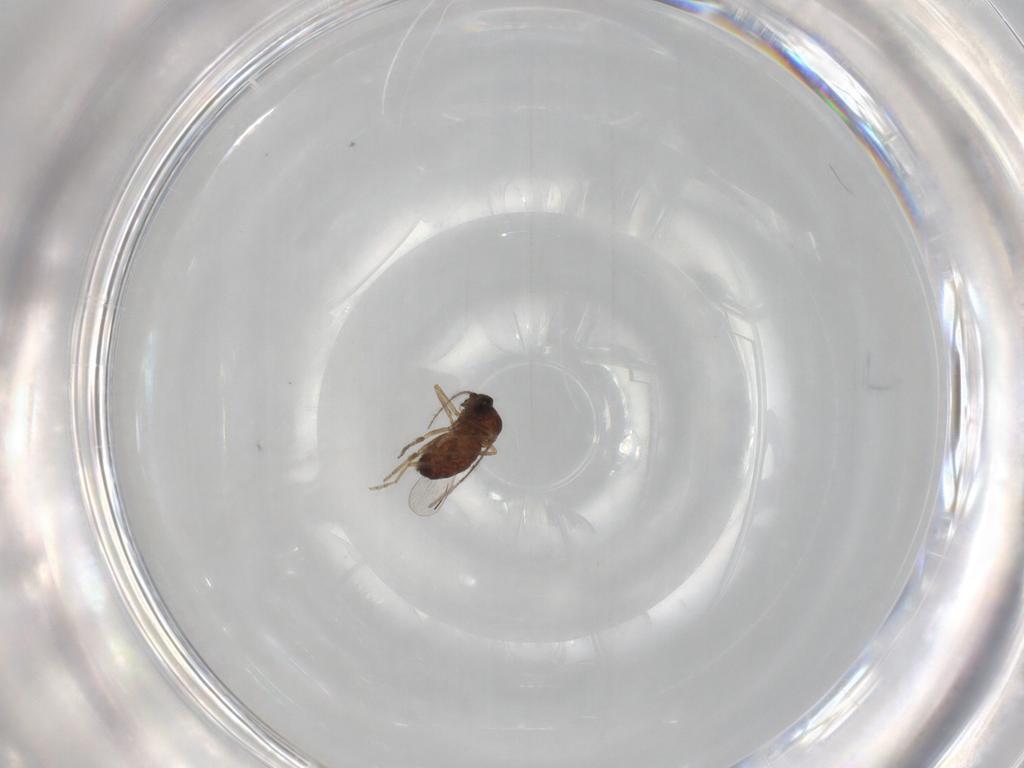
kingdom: Animalia
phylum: Arthropoda
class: Insecta
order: Diptera
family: Ceratopogonidae
